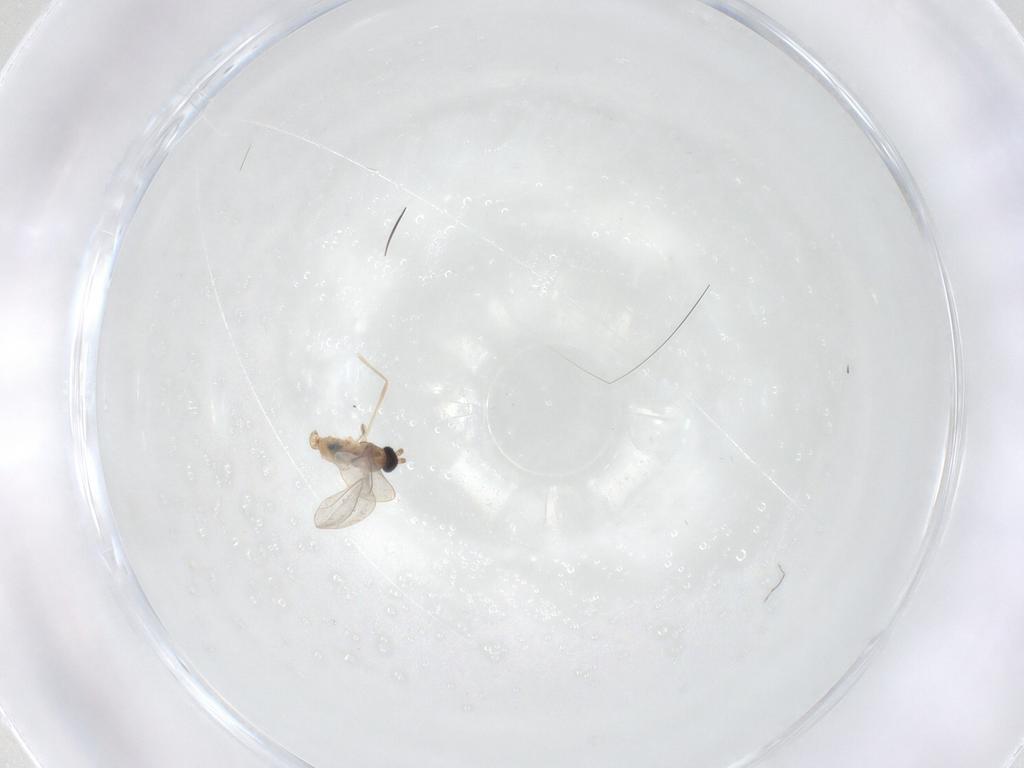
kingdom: Animalia
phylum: Arthropoda
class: Insecta
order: Diptera
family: Phoridae
